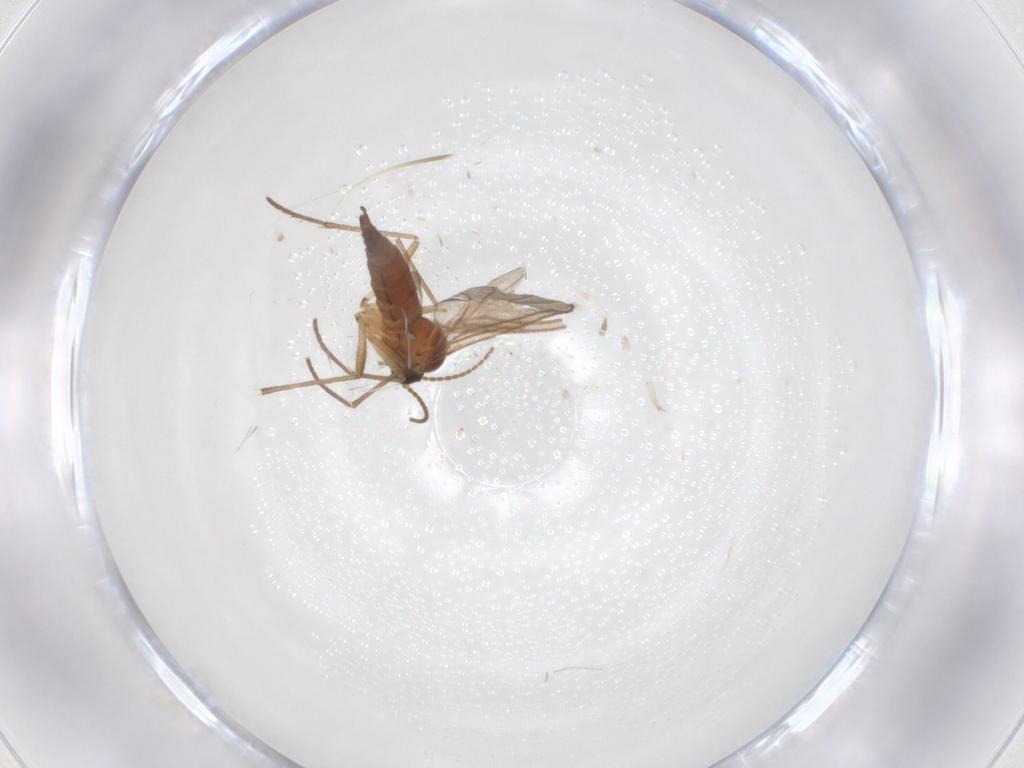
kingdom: Animalia
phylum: Arthropoda
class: Insecta
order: Diptera
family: Sciaridae
